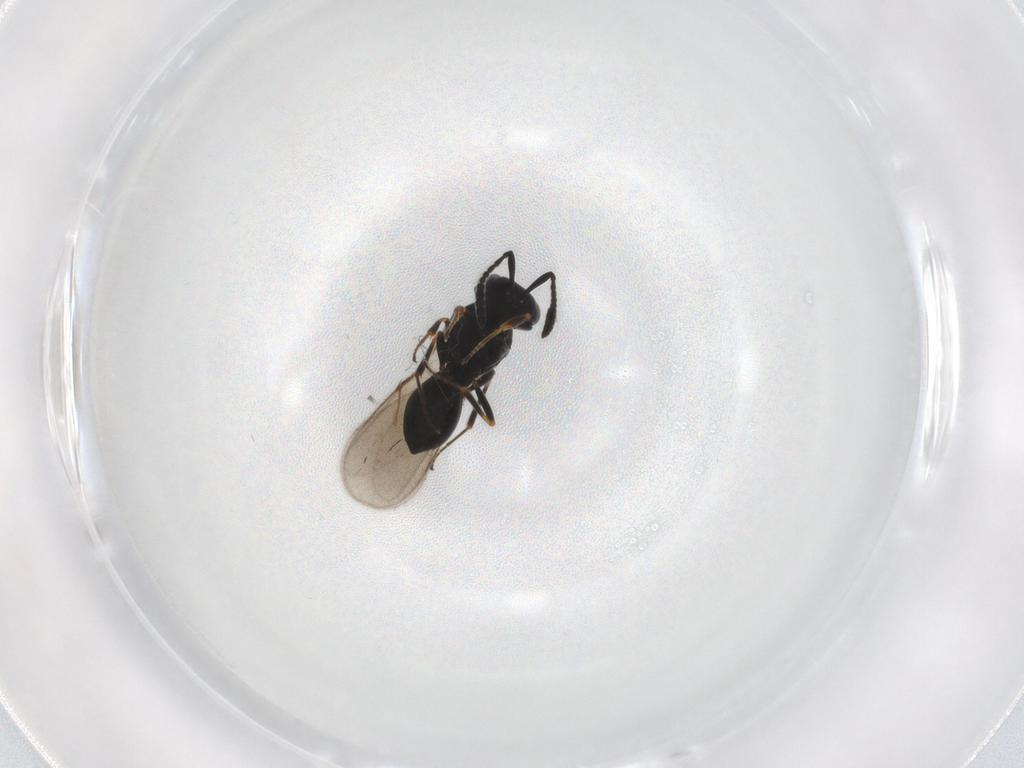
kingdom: Animalia
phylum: Arthropoda
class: Insecta
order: Hymenoptera
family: Scelionidae
